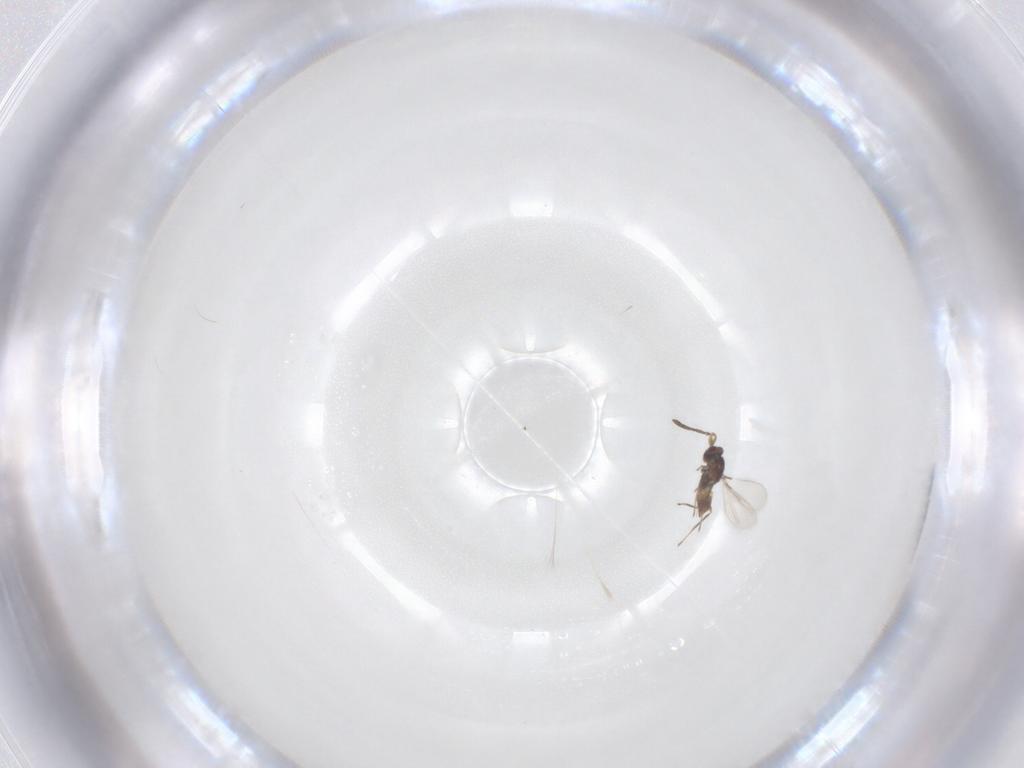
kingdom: Animalia
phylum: Arthropoda
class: Insecta
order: Hymenoptera
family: Mymaridae
